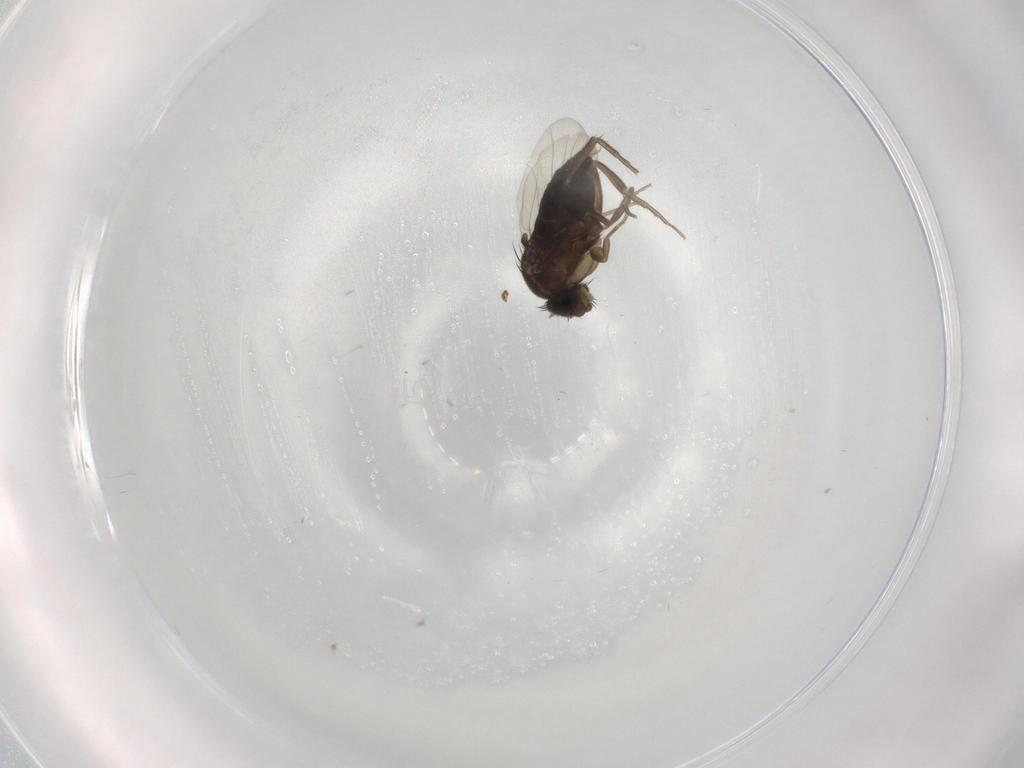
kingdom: Animalia
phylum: Arthropoda
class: Insecta
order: Diptera
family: Phoridae
